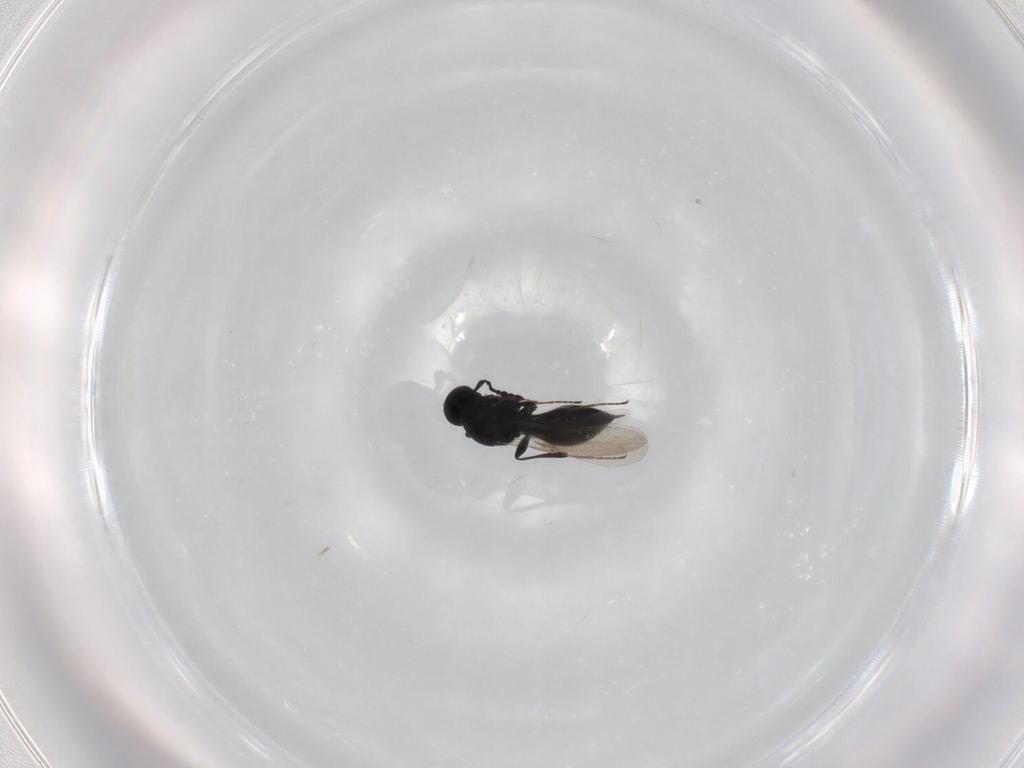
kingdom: Animalia
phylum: Arthropoda
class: Insecta
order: Hymenoptera
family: Platygastridae
